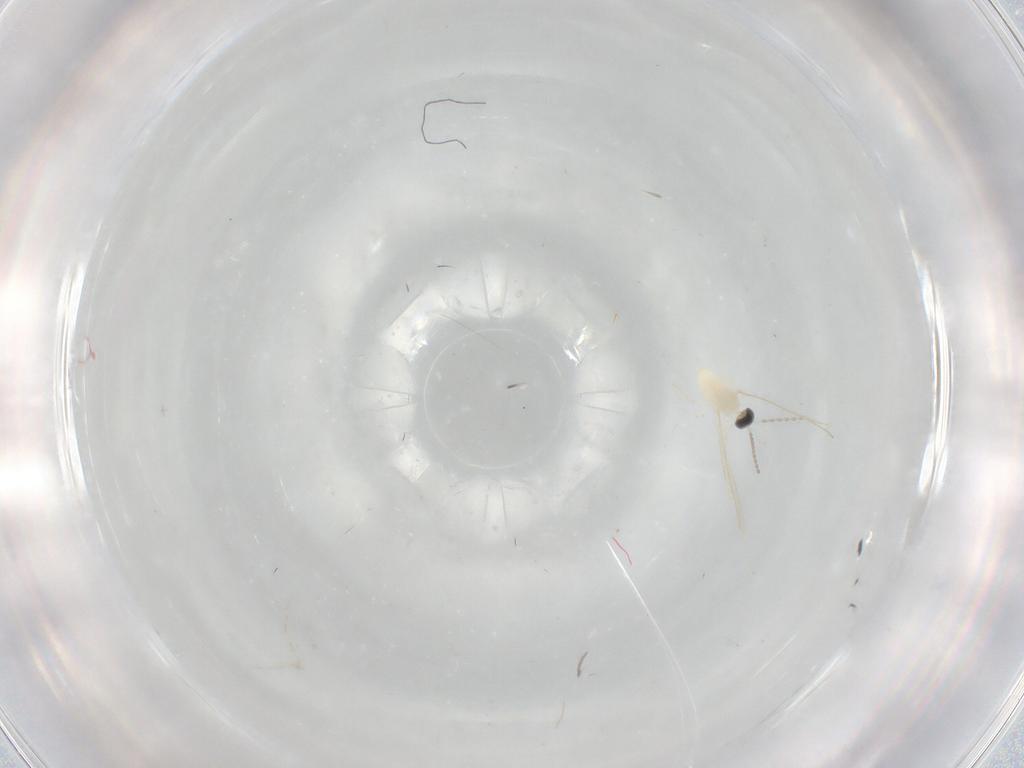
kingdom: Animalia
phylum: Arthropoda
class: Insecta
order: Diptera
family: Chironomidae
